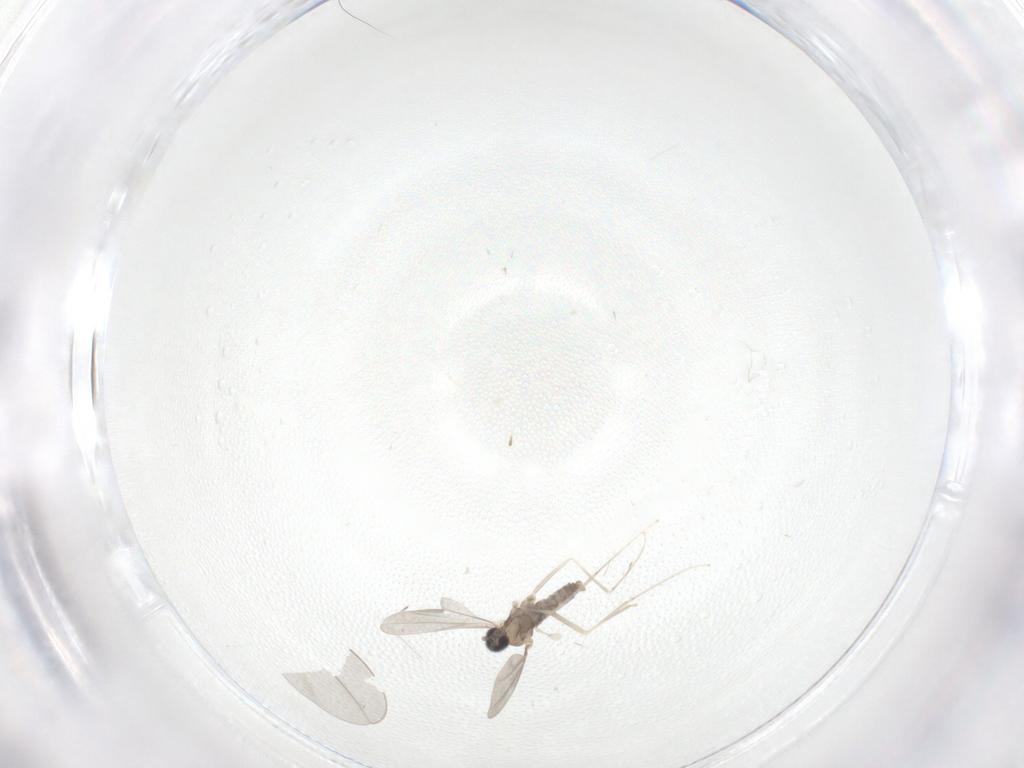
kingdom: Animalia
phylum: Arthropoda
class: Insecta
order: Diptera
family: Cecidomyiidae
